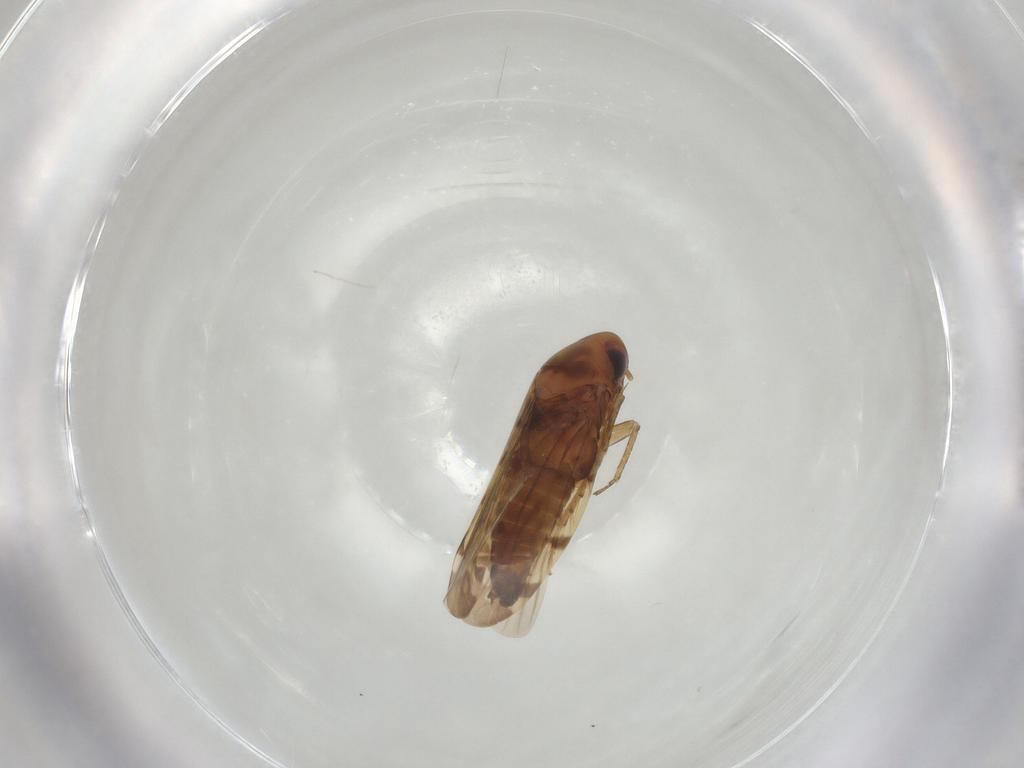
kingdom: Animalia
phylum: Arthropoda
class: Insecta
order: Hemiptera
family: Cicadellidae
